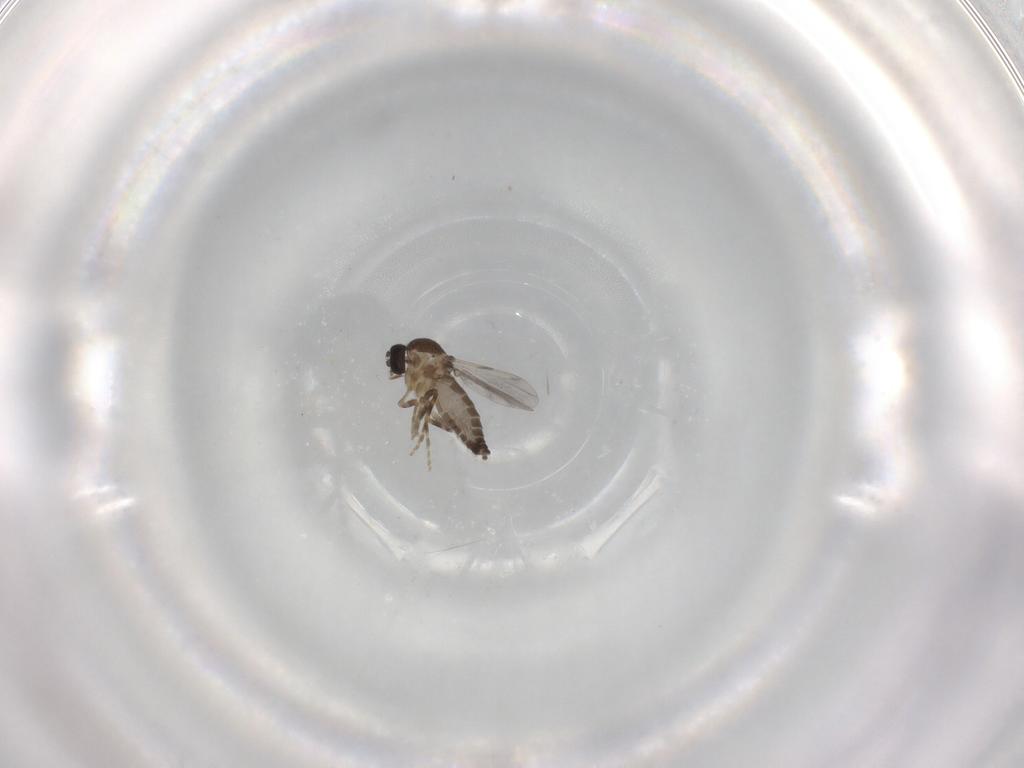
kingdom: Animalia
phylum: Arthropoda
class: Insecta
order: Diptera
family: Ceratopogonidae
